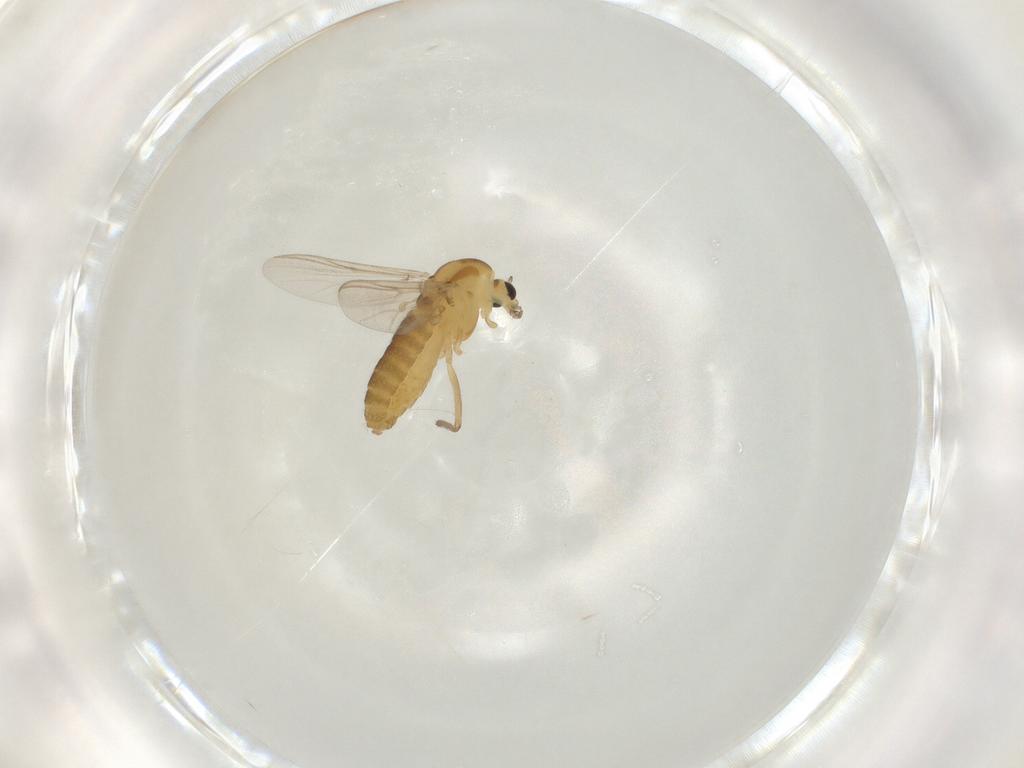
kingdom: Animalia
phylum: Arthropoda
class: Insecta
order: Diptera
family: Chironomidae
